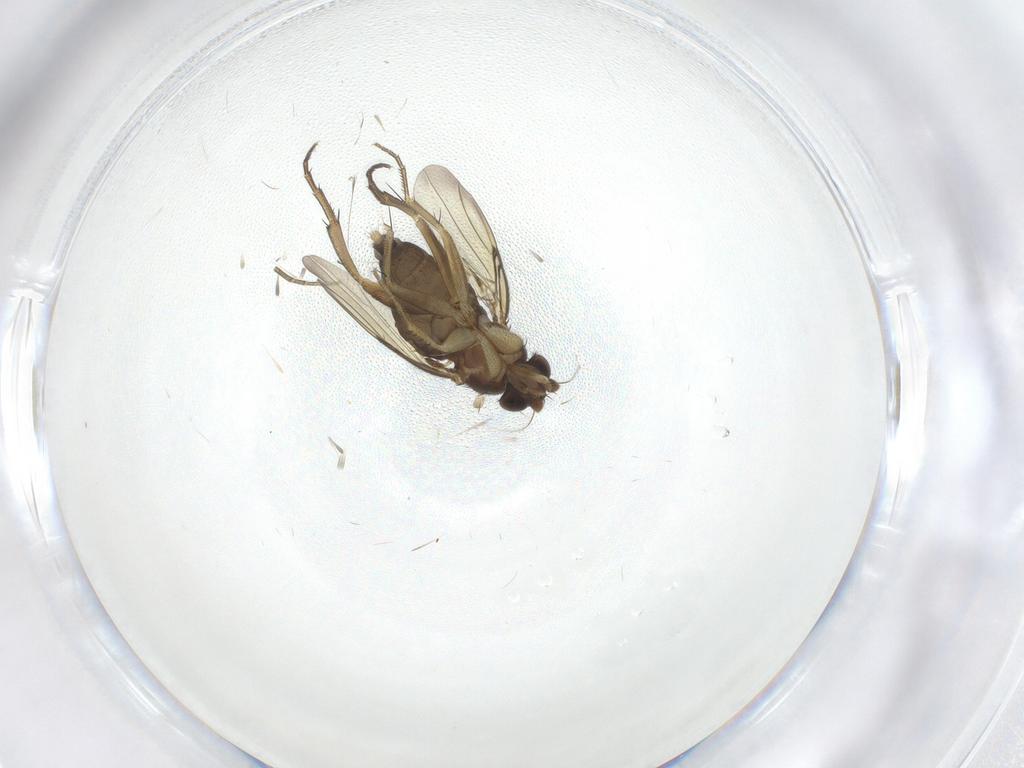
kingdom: Animalia
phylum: Arthropoda
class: Insecta
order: Diptera
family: Phoridae
